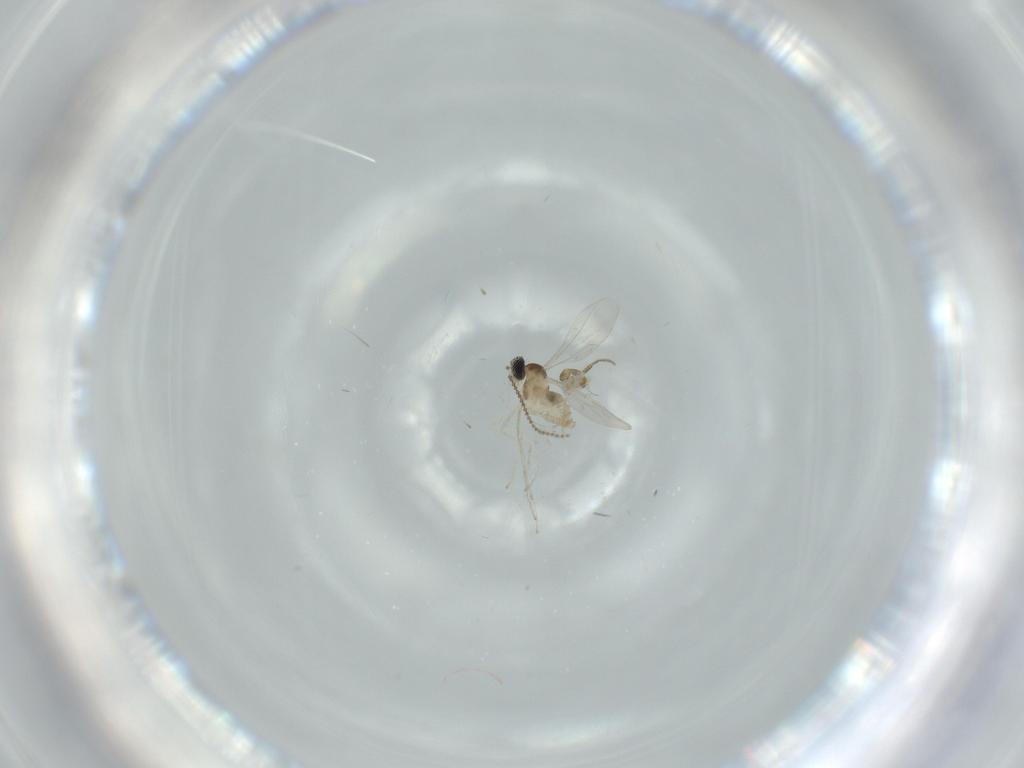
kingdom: Animalia
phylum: Arthropoda
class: Insecta
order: Diptera
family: Cecidomyiidae
